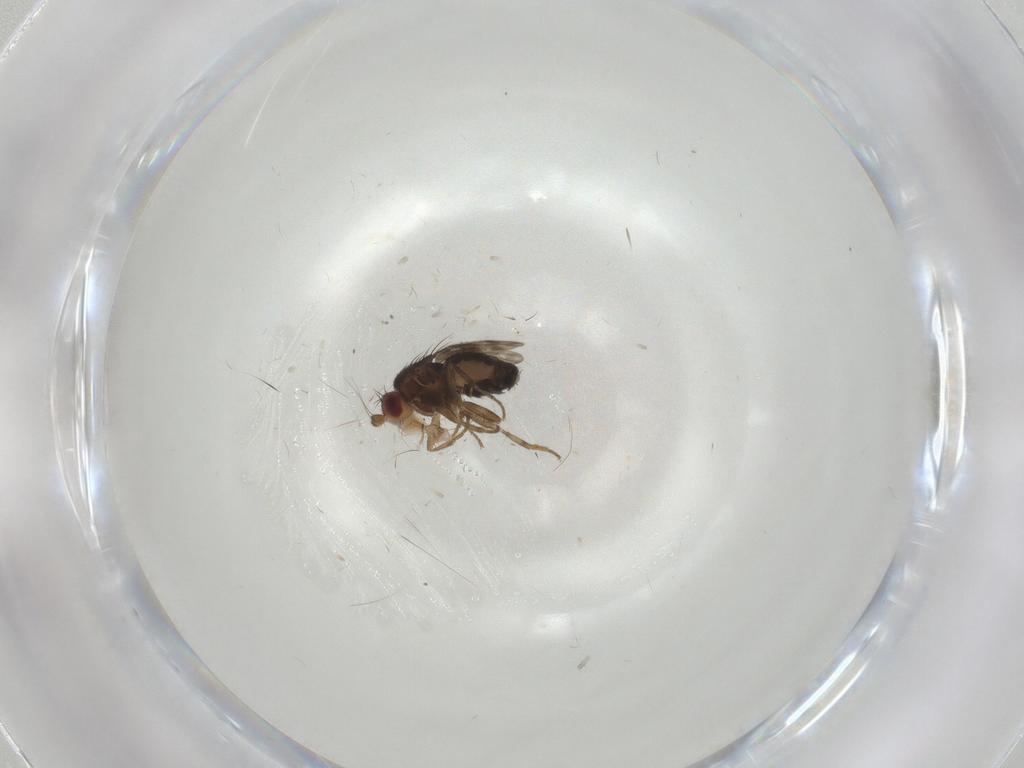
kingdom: Animalia
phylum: Arthropoda
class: Insecta
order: Diptera
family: Sphaeroceridae
